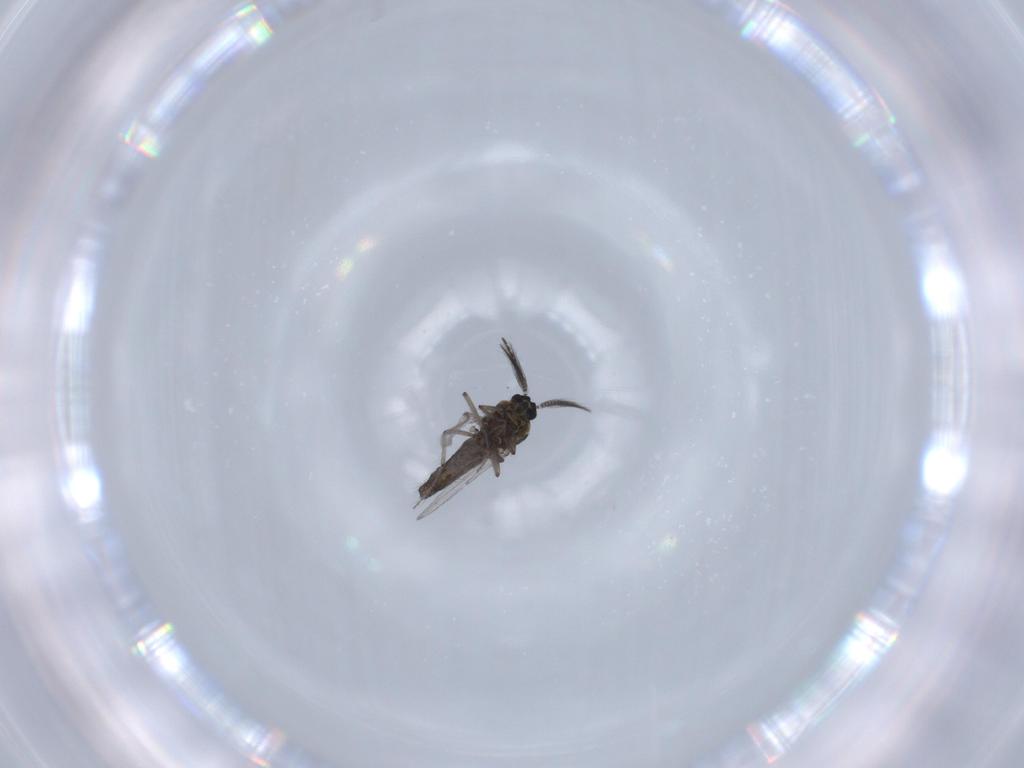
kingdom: Animalia
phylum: Arthropoda
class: Insecta
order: Diptera
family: Ceratopogonidae
